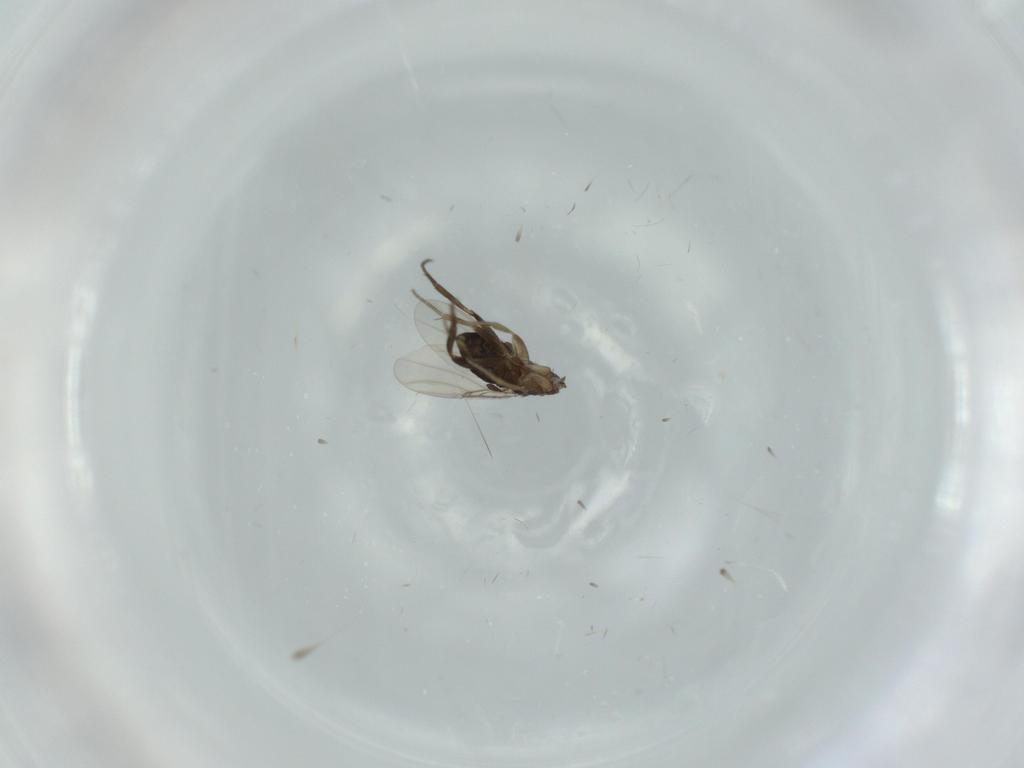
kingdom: Animalia
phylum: Arthropoda
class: Insecta
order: Diptera
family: Phoridae
